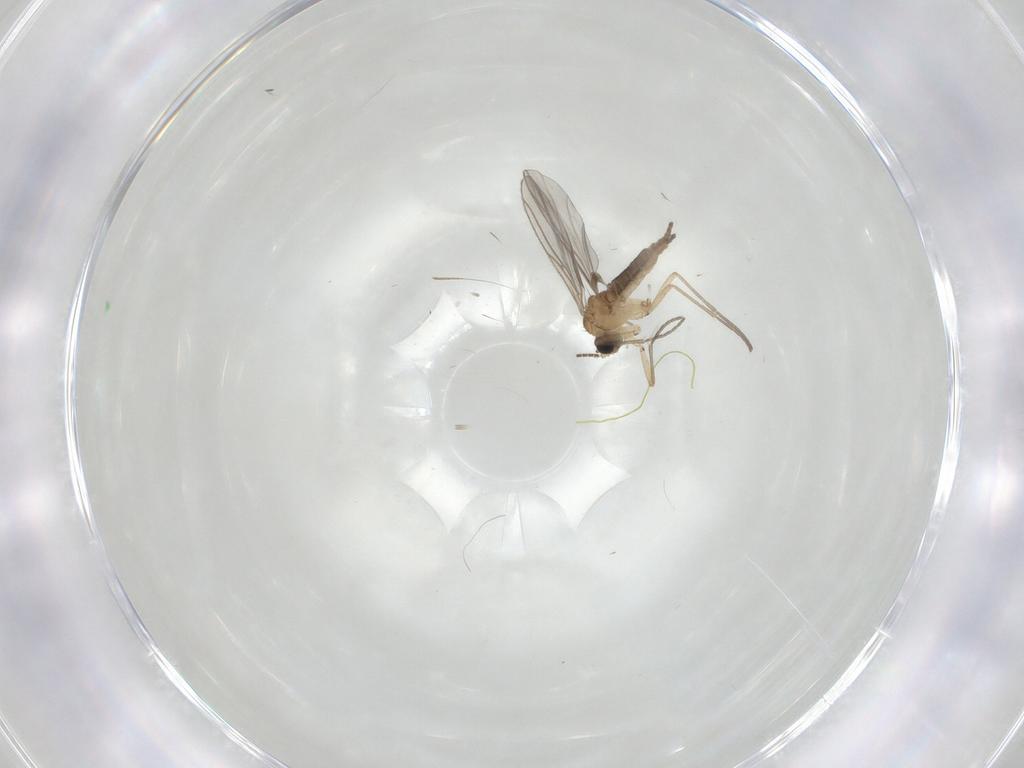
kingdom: Animalia
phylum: Arthropoda
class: Insecta
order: Diptera
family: Sciaridae
